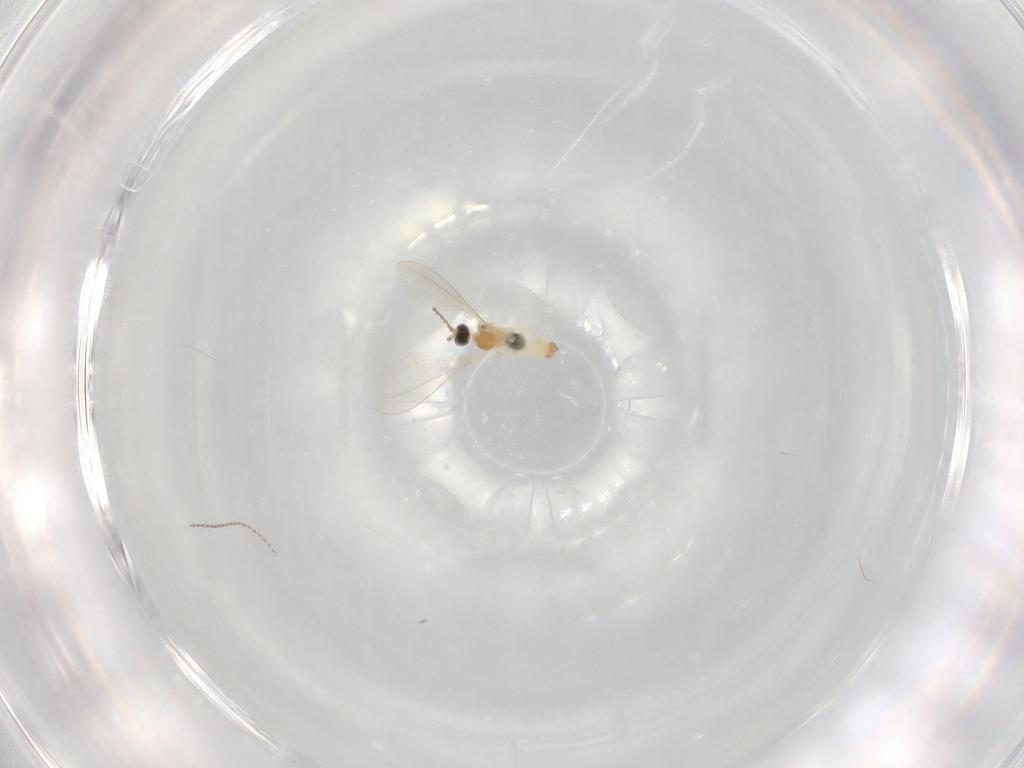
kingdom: Animalia
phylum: Arthropoda
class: Insecta
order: Diptera
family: Cecidomyiidae
